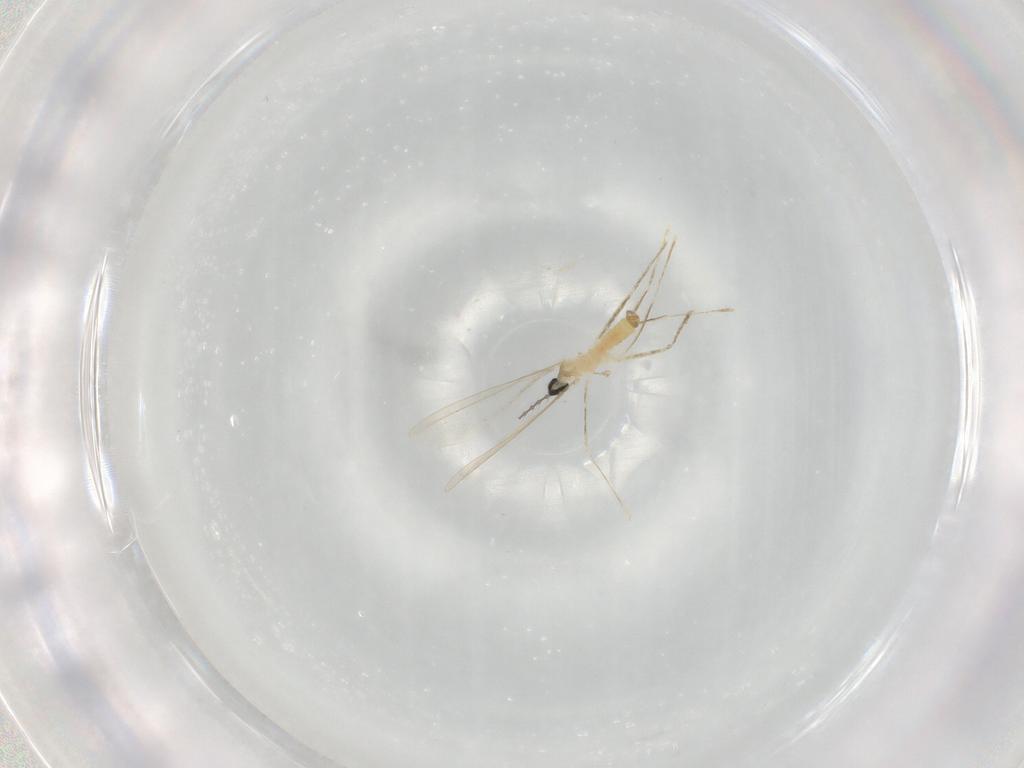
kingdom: Animalia
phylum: Arthropoda
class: Insecta
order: Diptera
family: Cecidomyiidae
